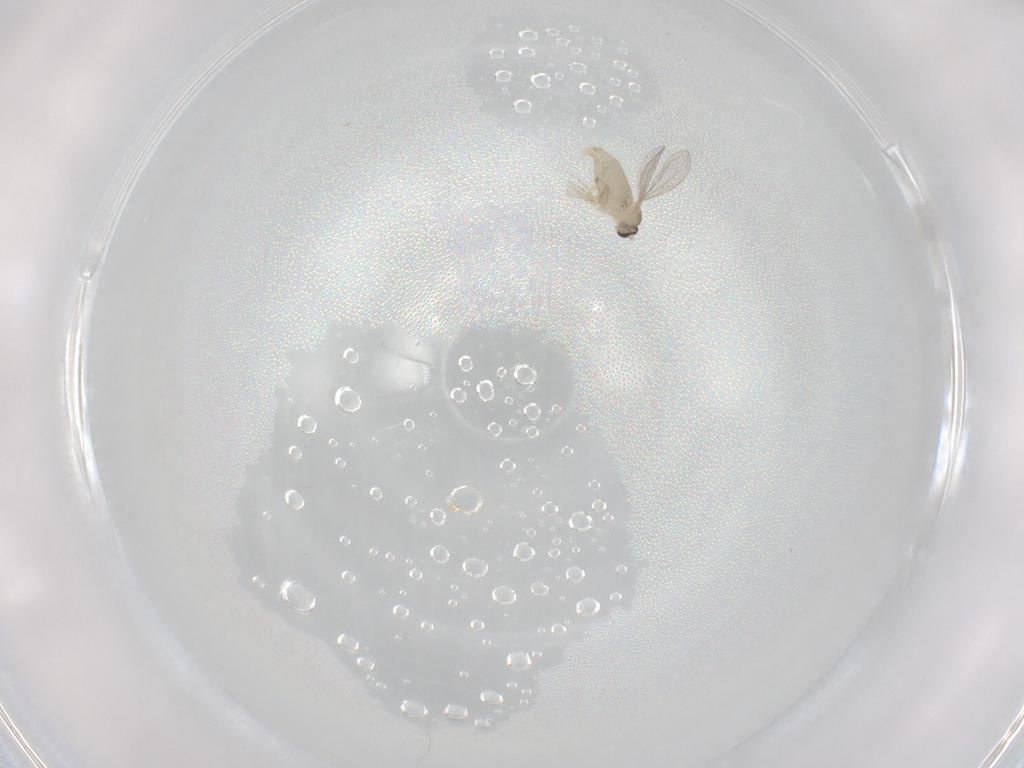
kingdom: Animalia
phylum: Arthropoda
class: Insecta
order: Diptera
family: Cecidomyiidae
